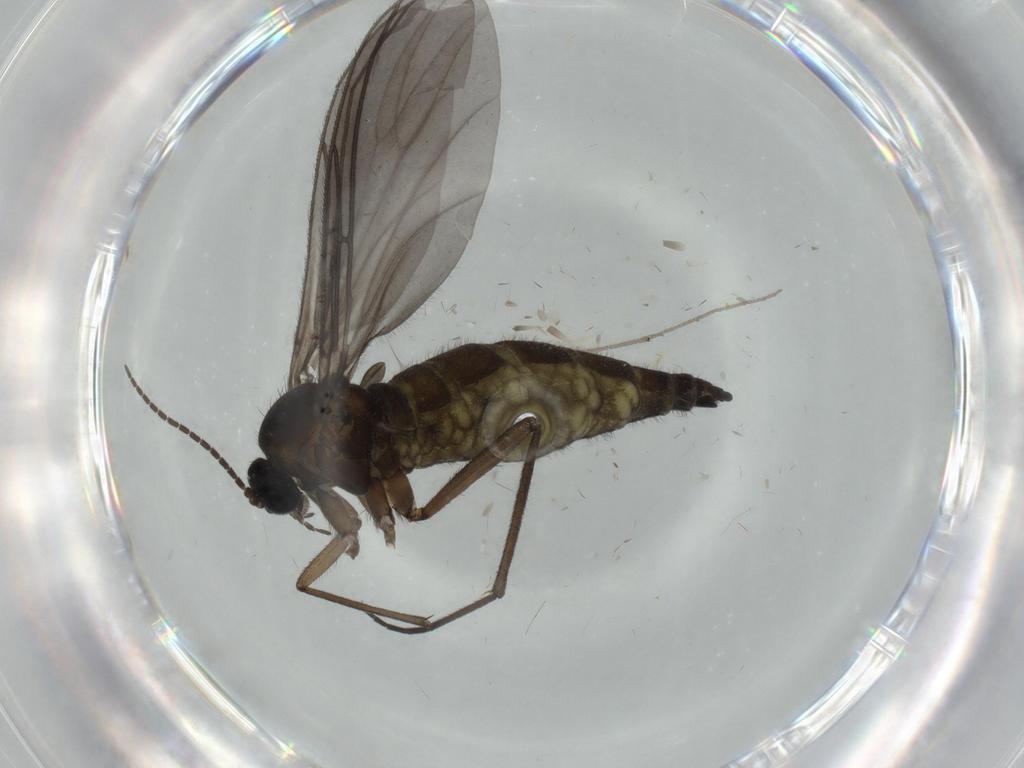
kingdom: Animalia
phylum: Arthropoda
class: Insecta
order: Diptera
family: Sciaridae
